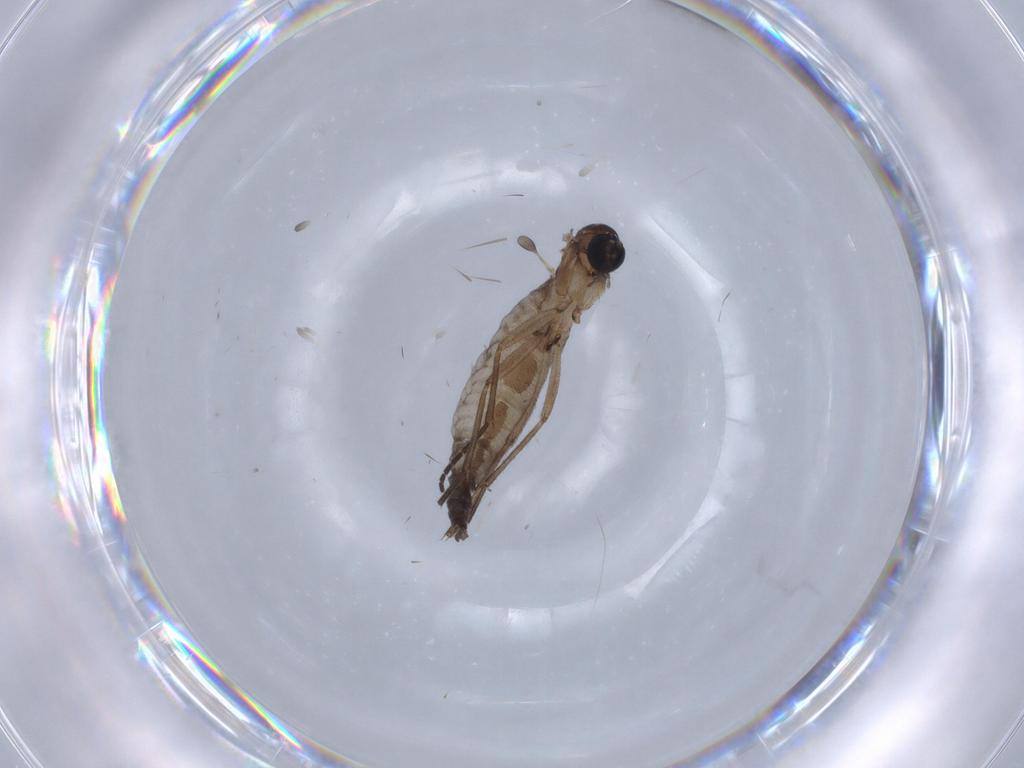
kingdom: Animalia
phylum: Arthropoda
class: Insecta
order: Diptera
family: Sciaridae
